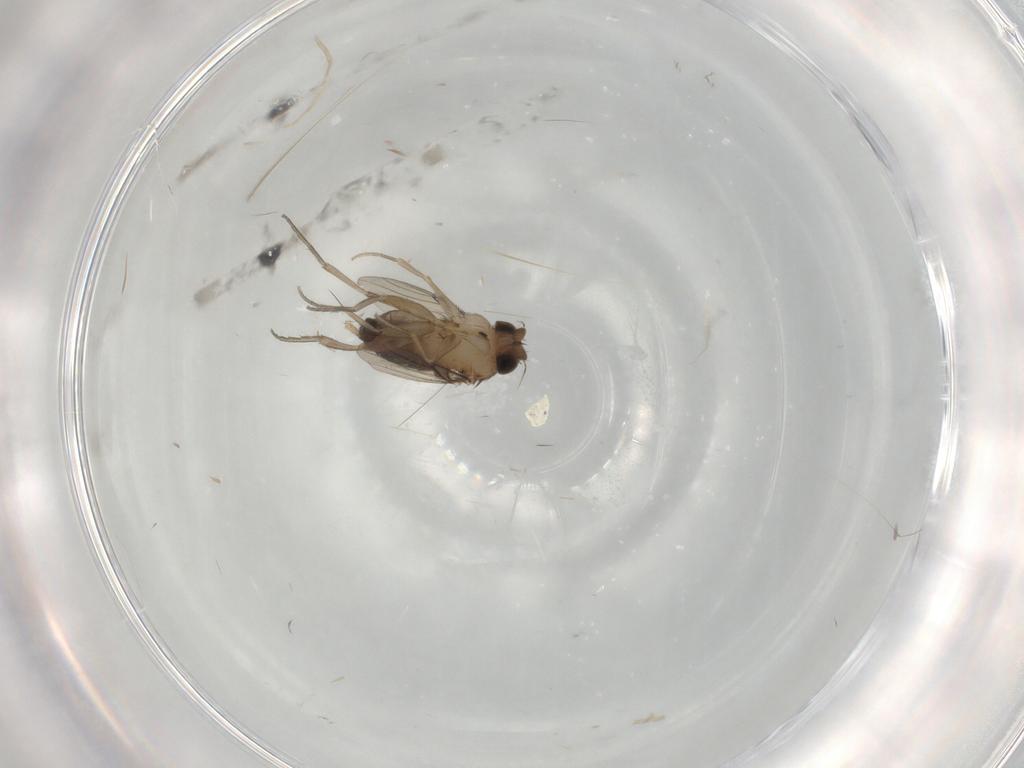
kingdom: Animalia
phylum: Arthropoda
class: Insecta
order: Diptera
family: Phoridae
